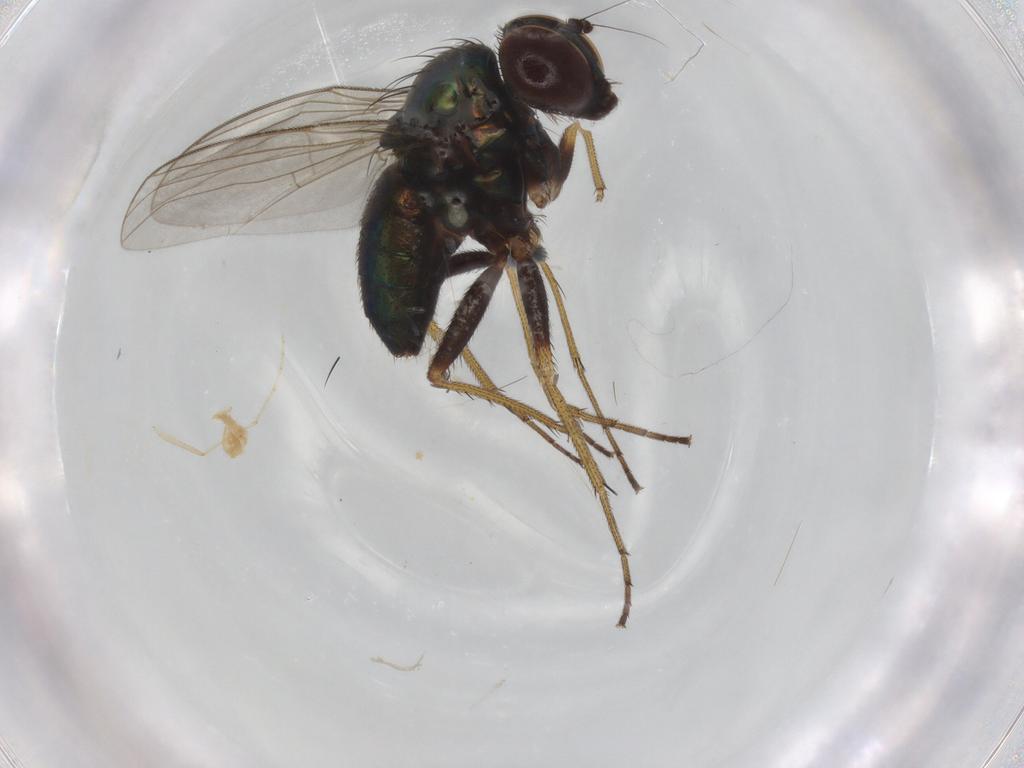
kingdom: Animalia
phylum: Arthropoda
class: Insecta
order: Diptera
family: Dolichopodidae
